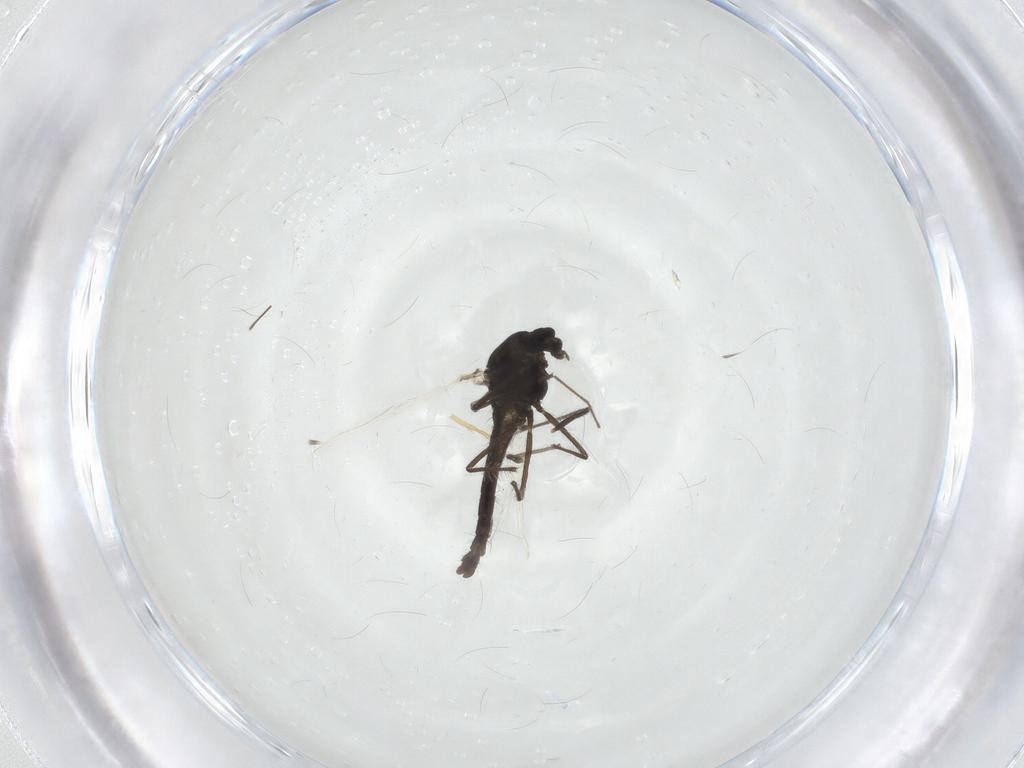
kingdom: Animalia
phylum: Arthropoda
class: Insecta
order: Diptera
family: Chironomidae
